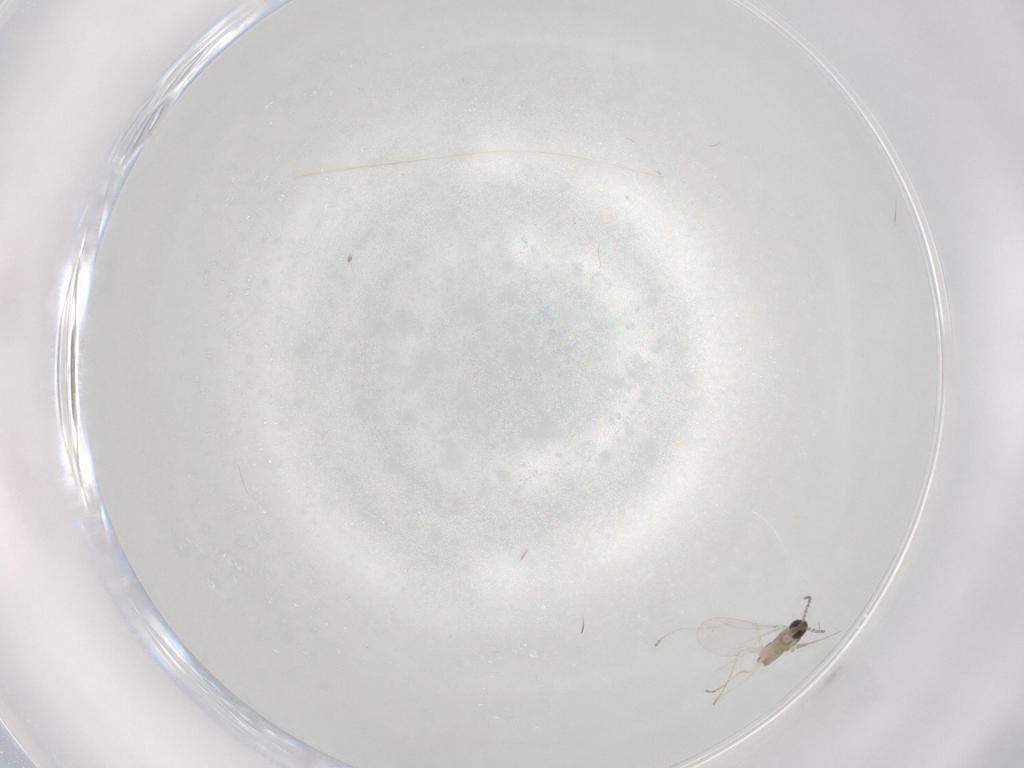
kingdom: Animalia
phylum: Arthropoda
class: Insecta
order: Diptera
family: Cecidomyiidae
